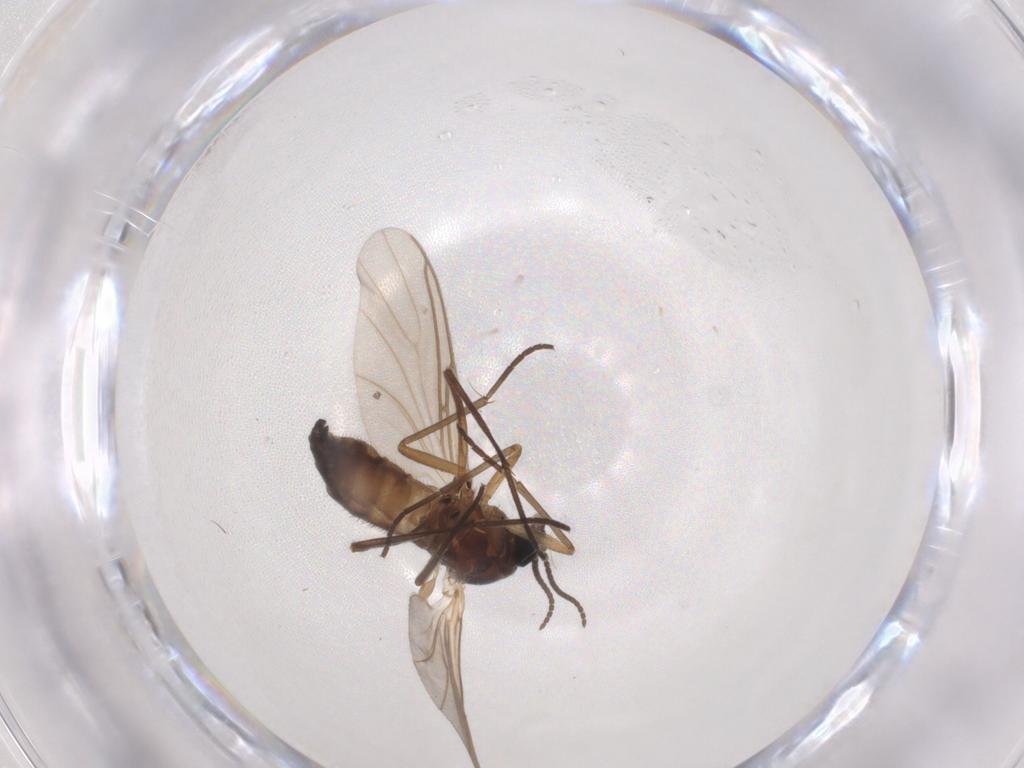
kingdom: Animalia
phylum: Arthropoda
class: Insecta
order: Diptera
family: Sciaridae
